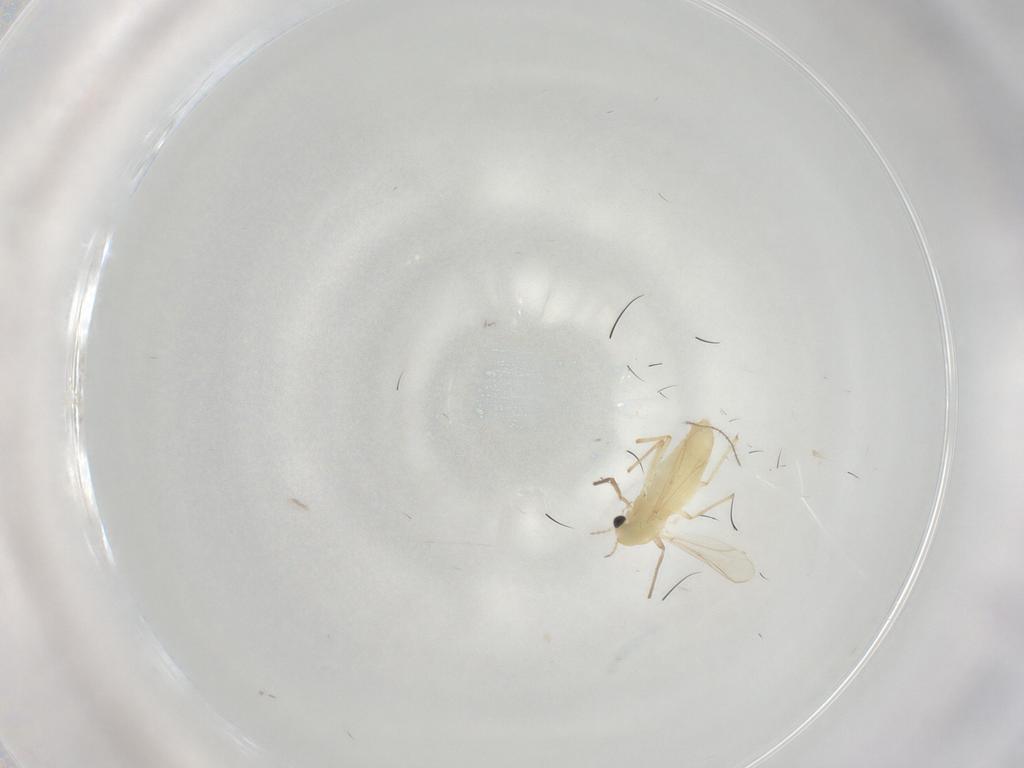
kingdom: Animalia
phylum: Arthropoda
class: Insecta
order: Diptera
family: Chironomidae
